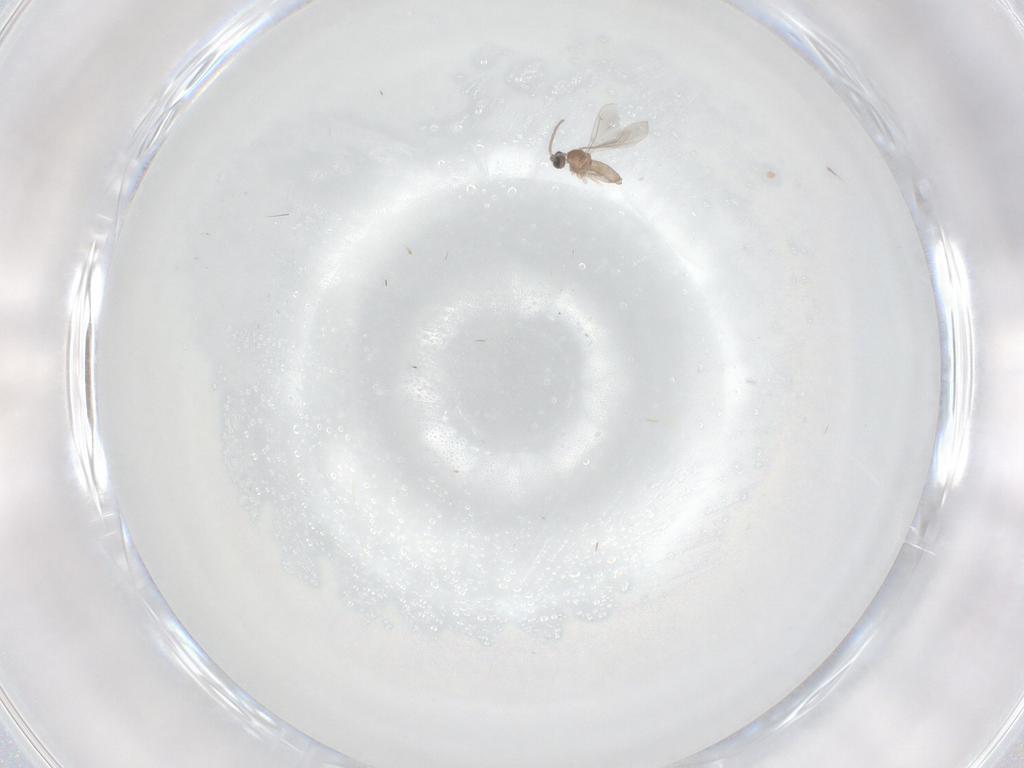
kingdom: Animalia
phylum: Arthropoda
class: Insecta
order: Diptera
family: Cecidomyiidae
